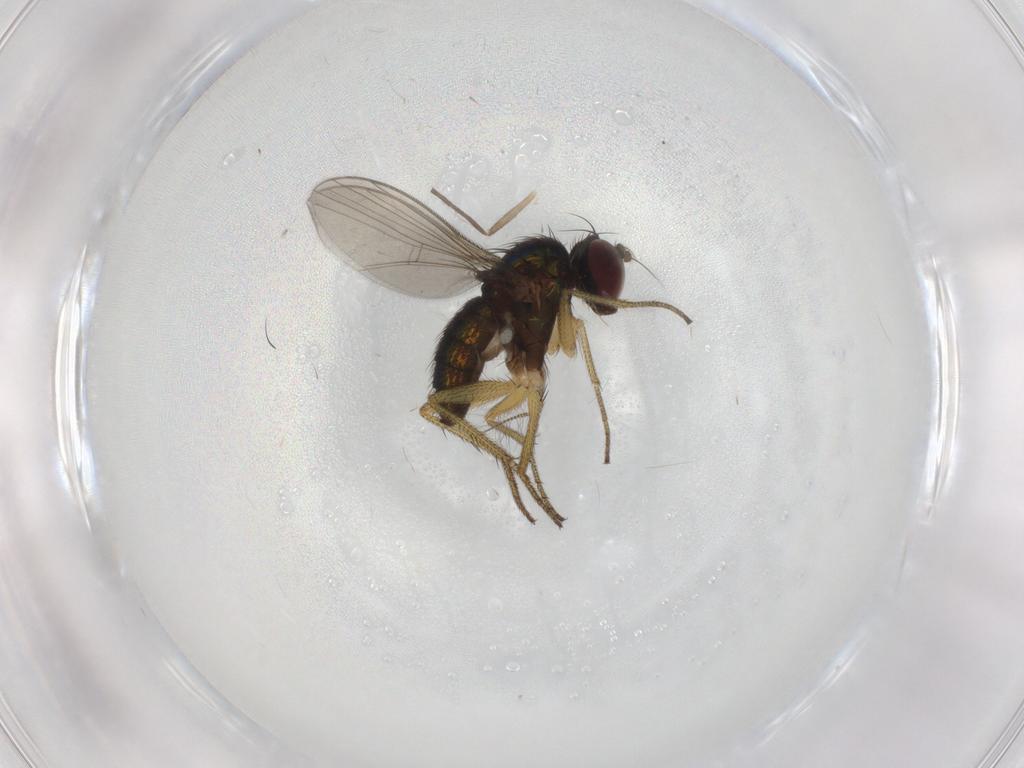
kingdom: Animalia
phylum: Arthropoda
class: Insecta
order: Diptera
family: Chironomidae
